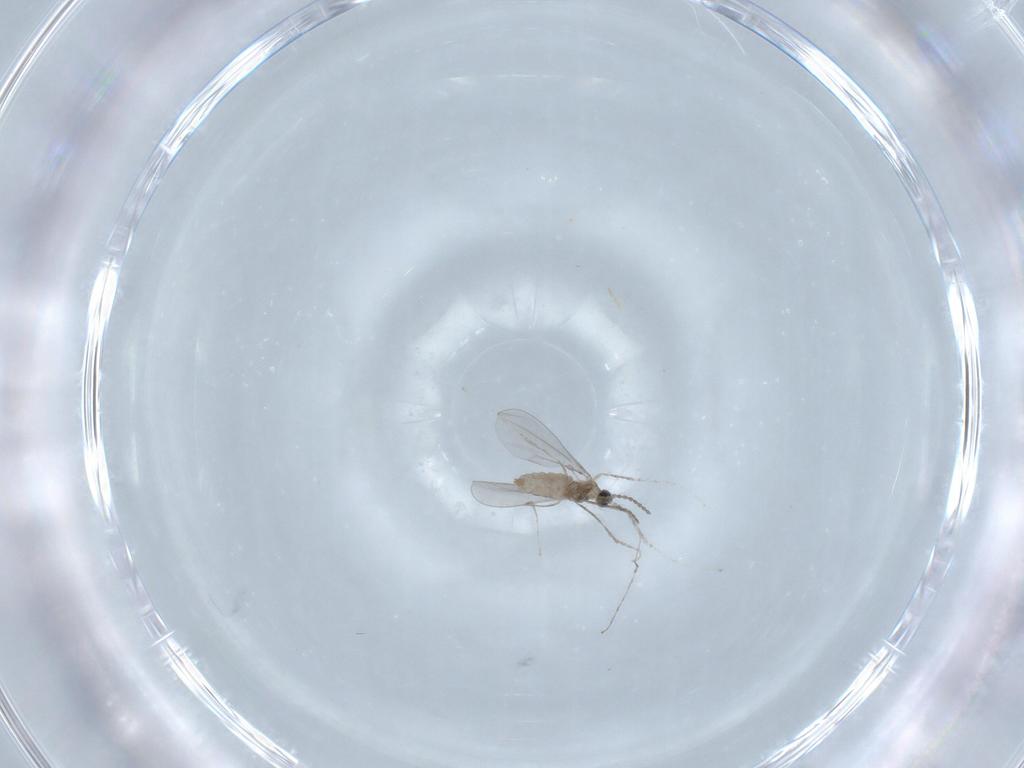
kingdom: Animalia
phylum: Arthropoda
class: Insecta
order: Diptera
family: Cecidomyiidae
